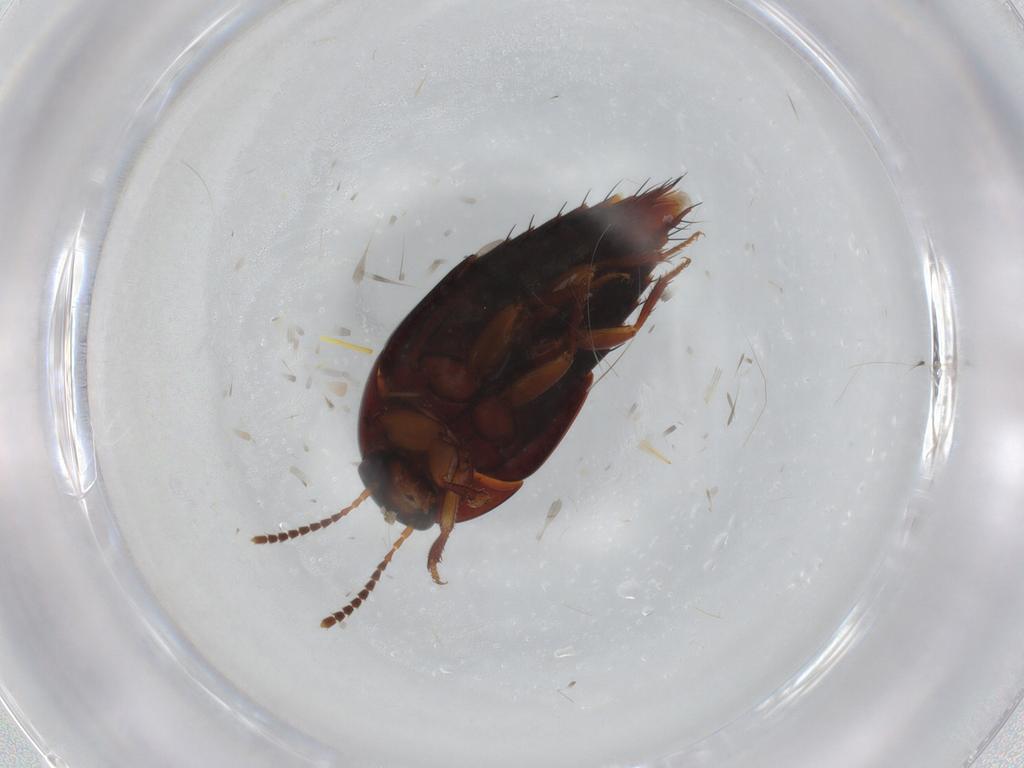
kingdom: Animalia
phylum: Arthropoda
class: Insecta
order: Coleoptera
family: Staphylinidae
